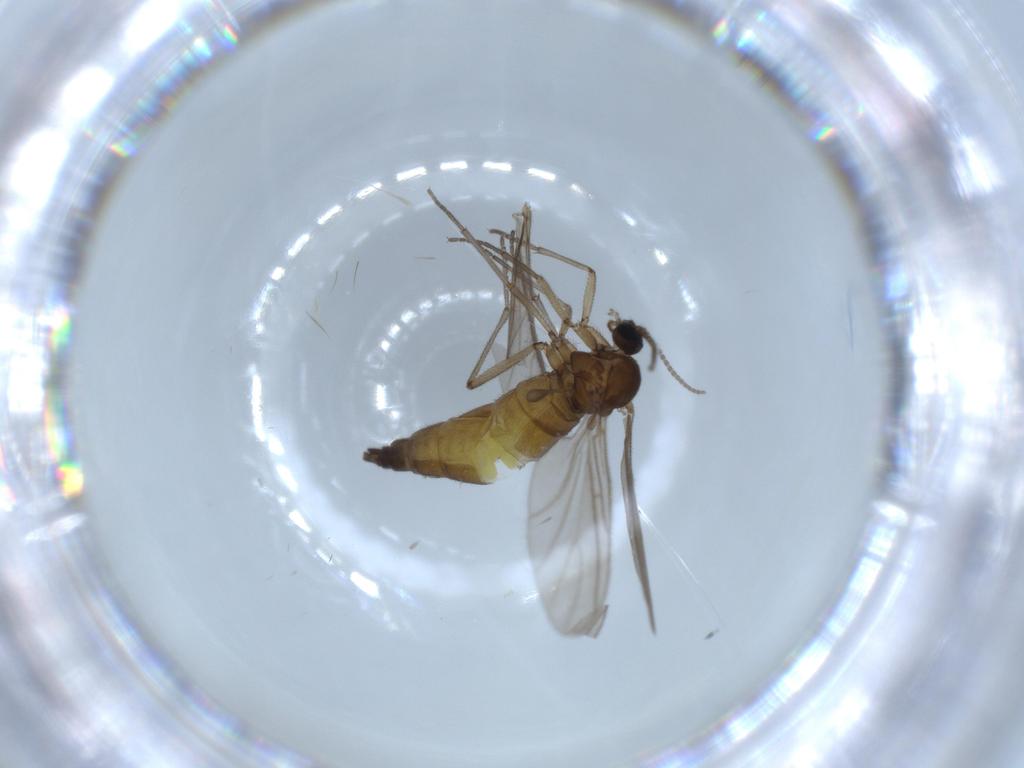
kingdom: Animalia
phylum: Arthropoda
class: Insecta
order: Diptera
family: Sciaridae
